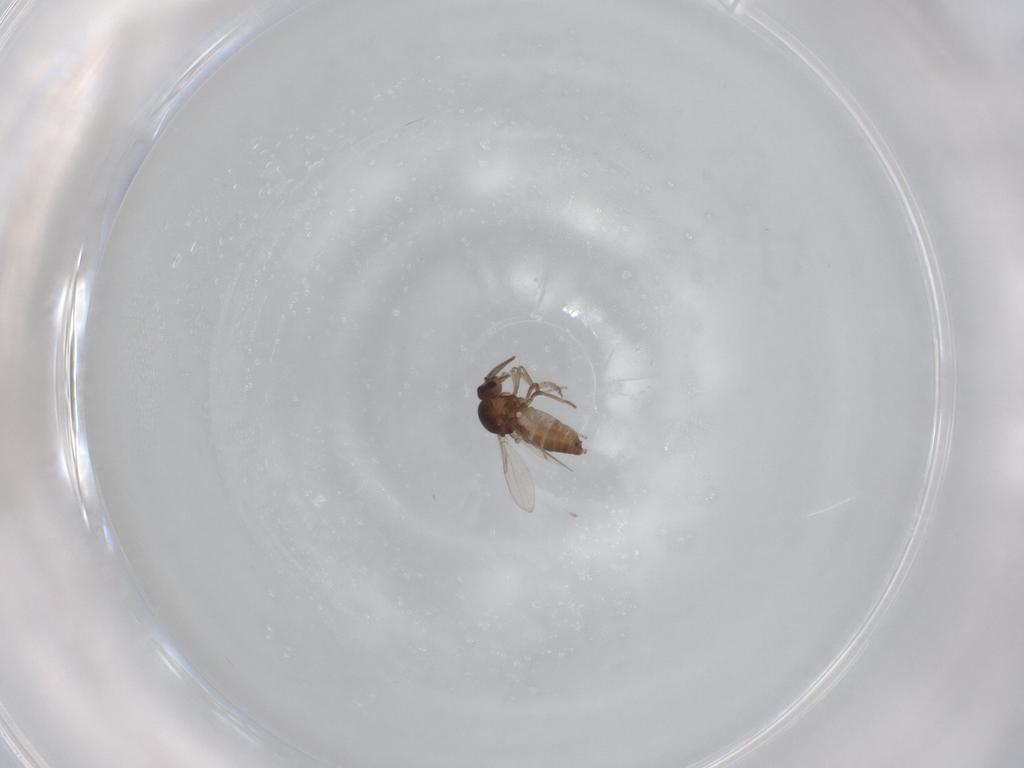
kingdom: Animalia
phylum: Arthropoda
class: Insecta
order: Diptera
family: Ceratopogonidae
